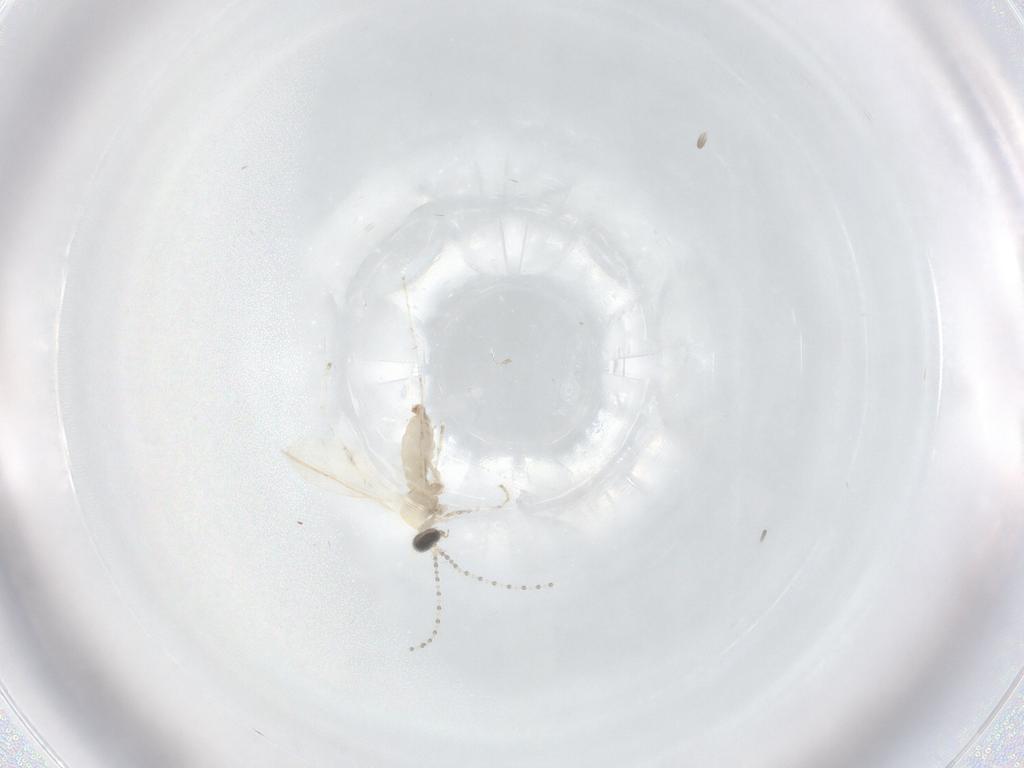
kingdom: Animalia
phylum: Arthropoda
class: Insecta
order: Diptera
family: Cecidomyiidae
